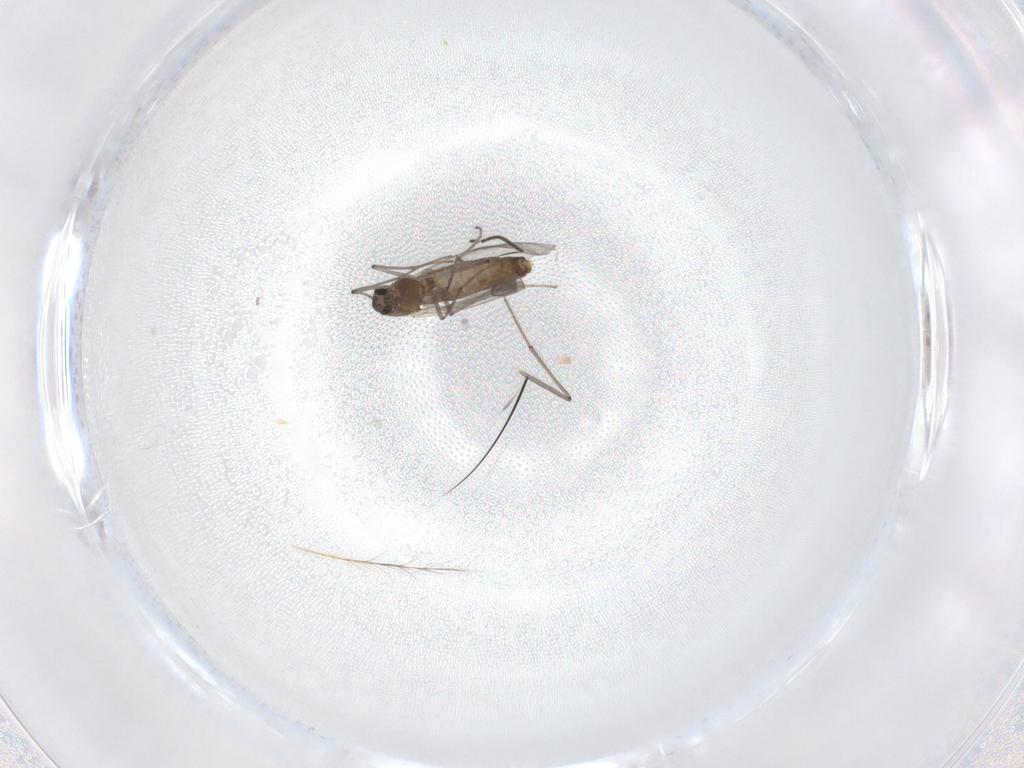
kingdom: Animalia
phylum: Arthropoda
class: Insecta
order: Diptera
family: Chironomidae
